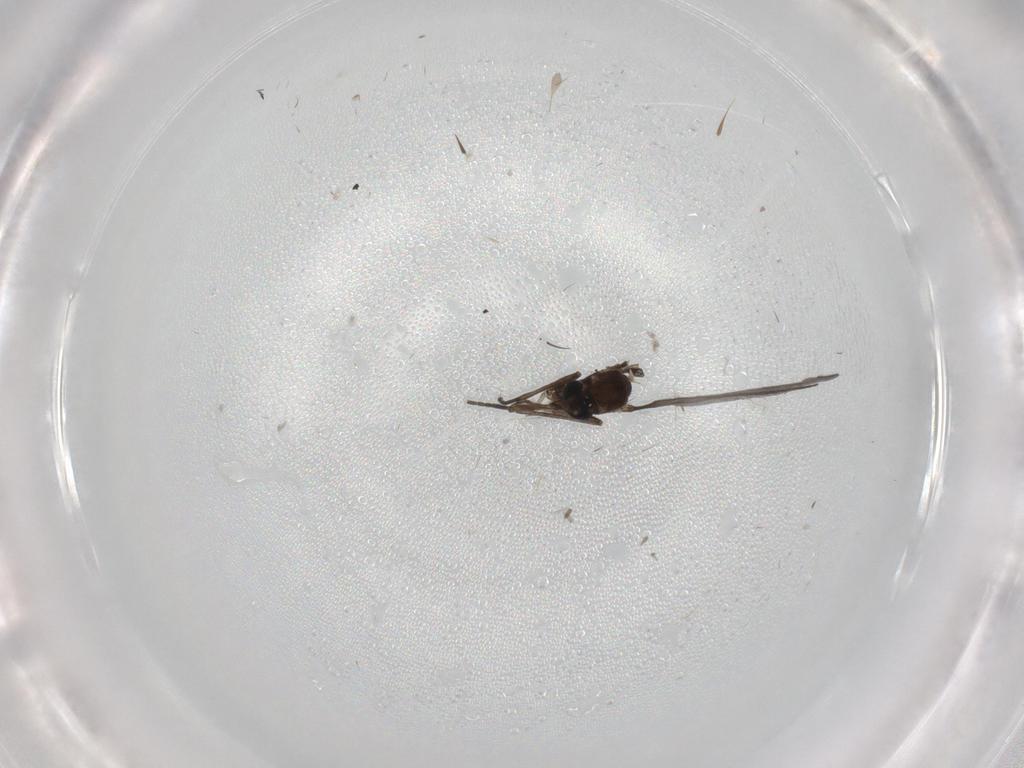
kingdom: Animalia
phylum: Arthropoda
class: Insecta
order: Diptera
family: Sciaridae
